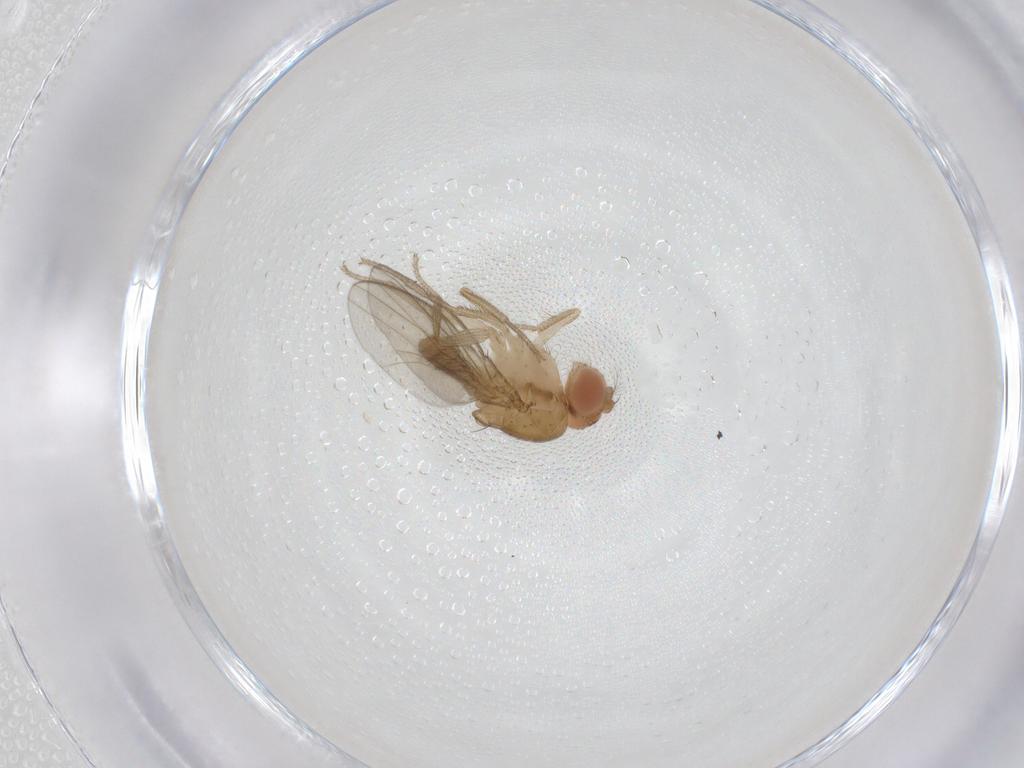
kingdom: Animalia
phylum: Arthropoda
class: Insecta
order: Diptera
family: Drosophilidae
